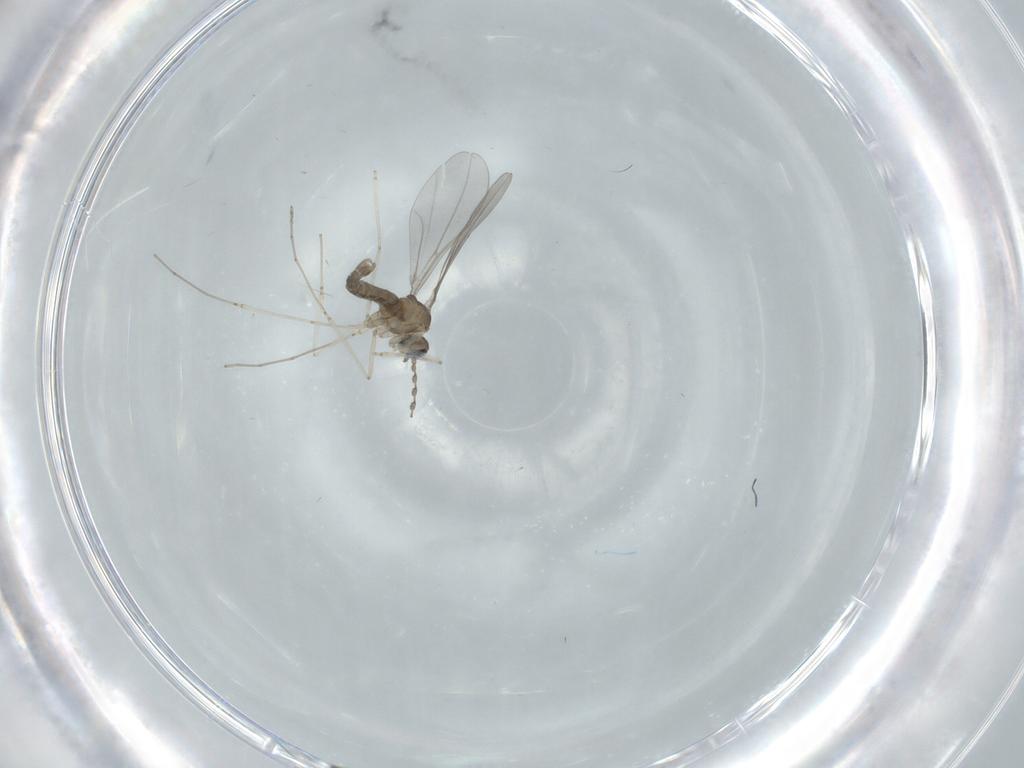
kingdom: Animalia
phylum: Arthropoda
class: Insecta
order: Diptera
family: Cecidomyiidae
